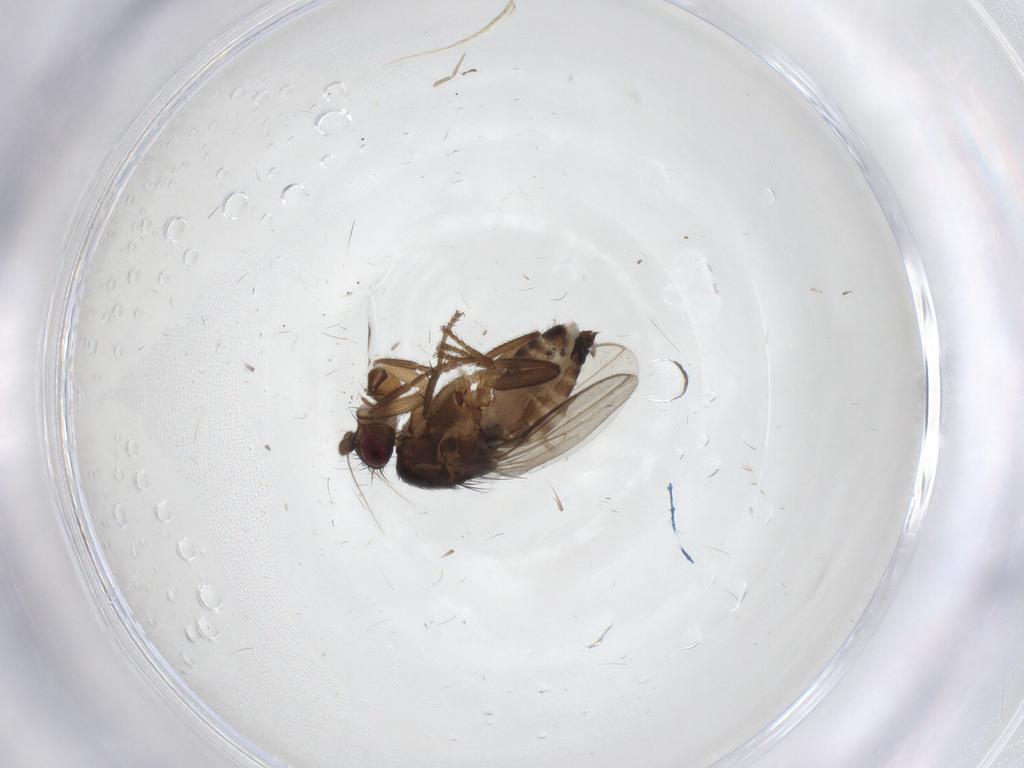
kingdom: Animalia
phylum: Arthropoda
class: Insecta
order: Diptera
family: Sphaeroceridae
